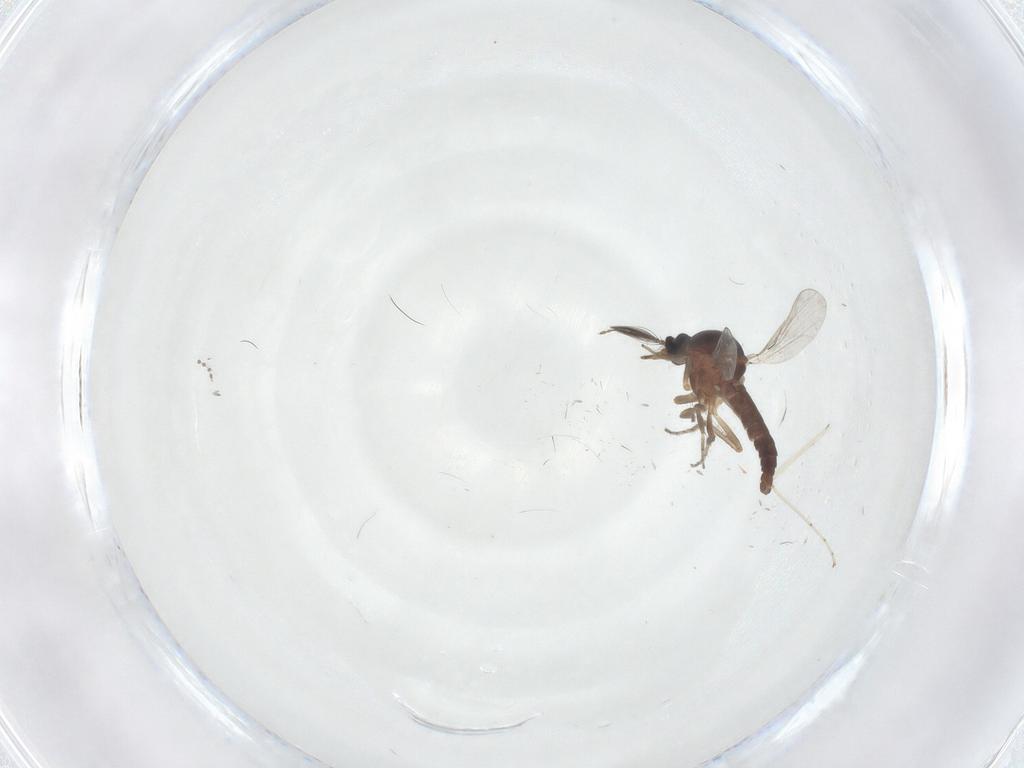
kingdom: Animalia
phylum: Arthropoda
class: Insecta
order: Diptera
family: Ceratopogonidae
